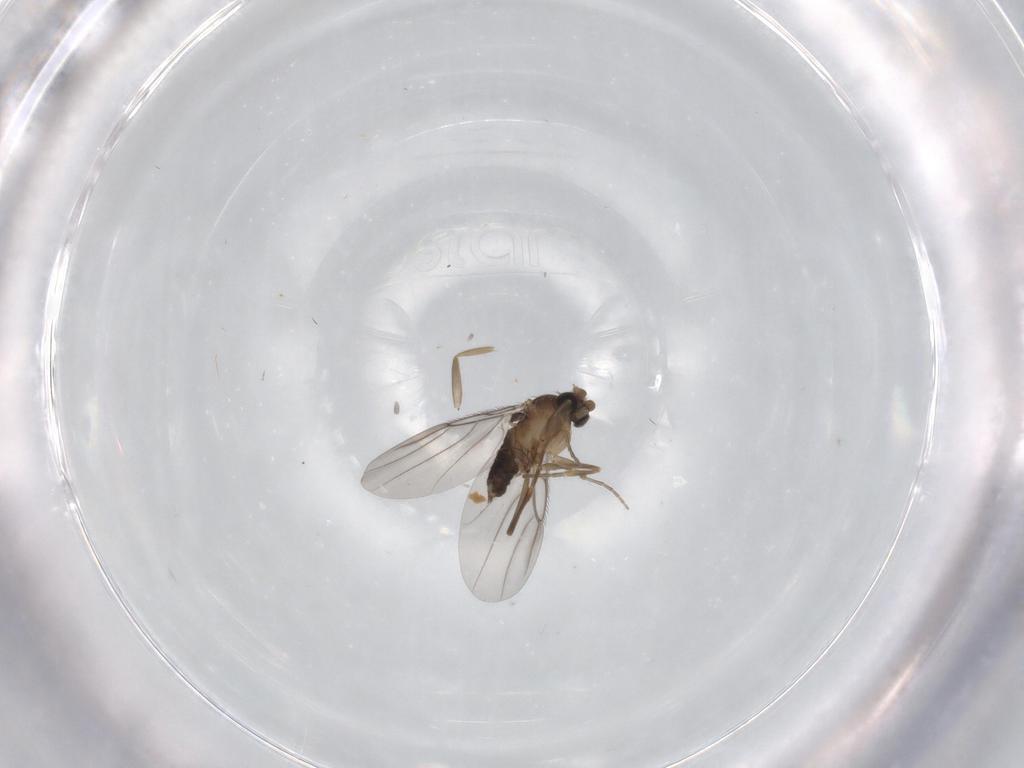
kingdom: Animalia
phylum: Arthropoda
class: Insecta
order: Diptera
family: Phoridae
